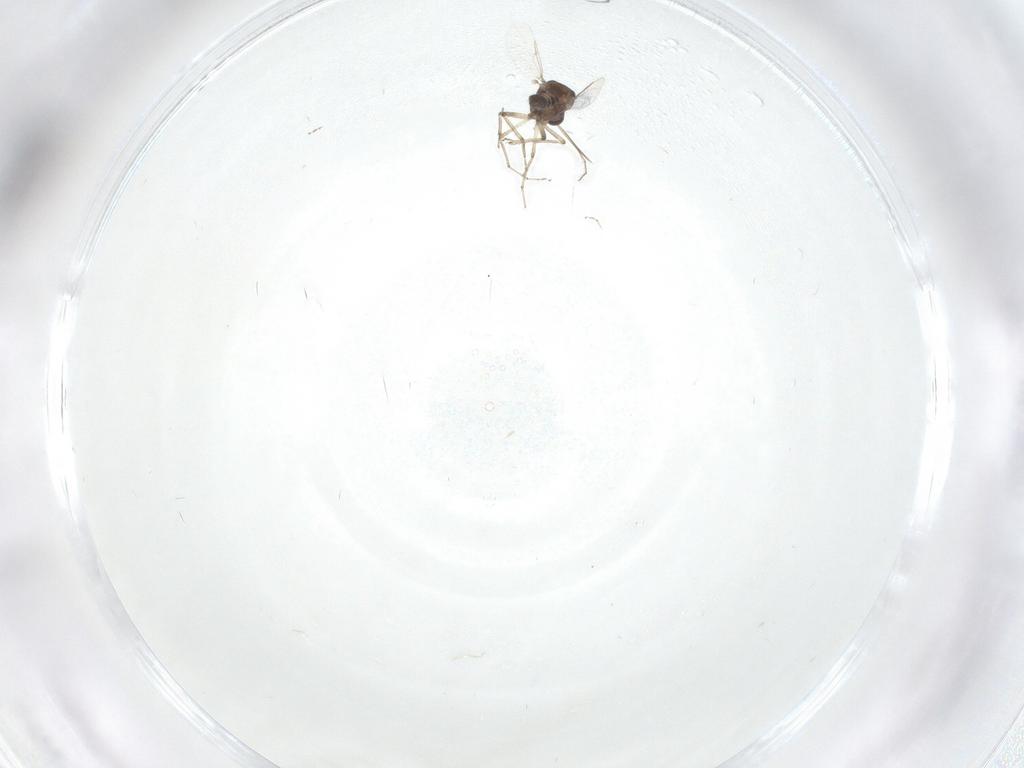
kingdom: Animalia
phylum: Arthropoda
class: Insecta
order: Diptera
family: Ceratopogonidae
